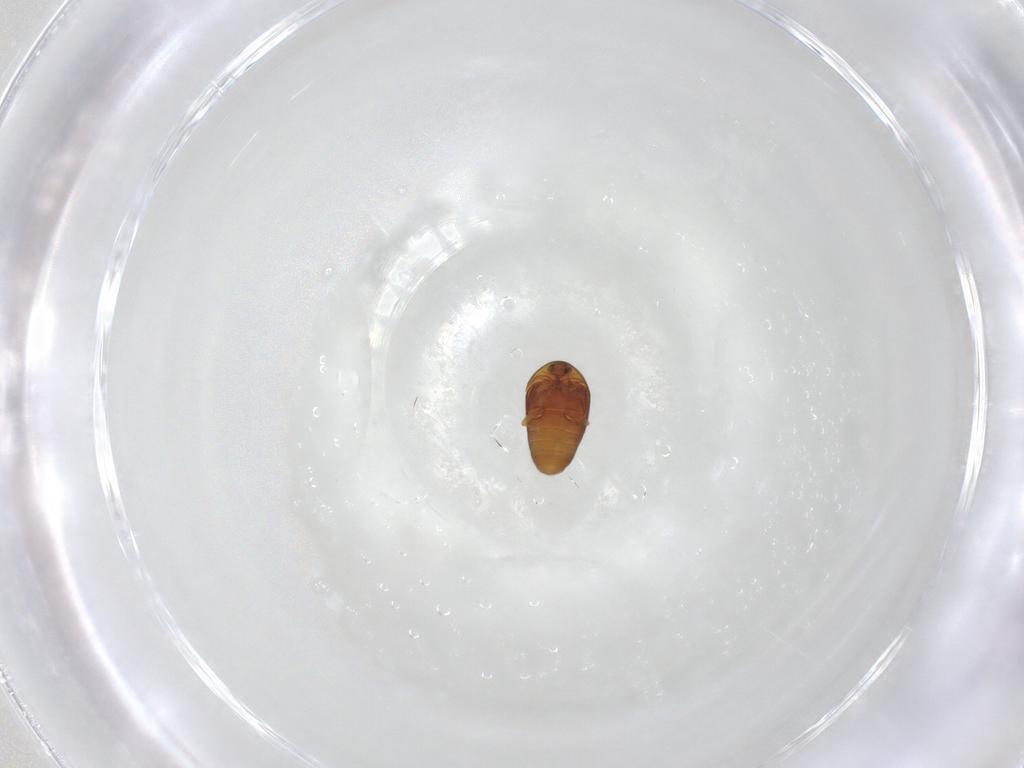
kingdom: Animalia
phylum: Arthropoda
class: Insecta
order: Coleoptera
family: Corylophidae
